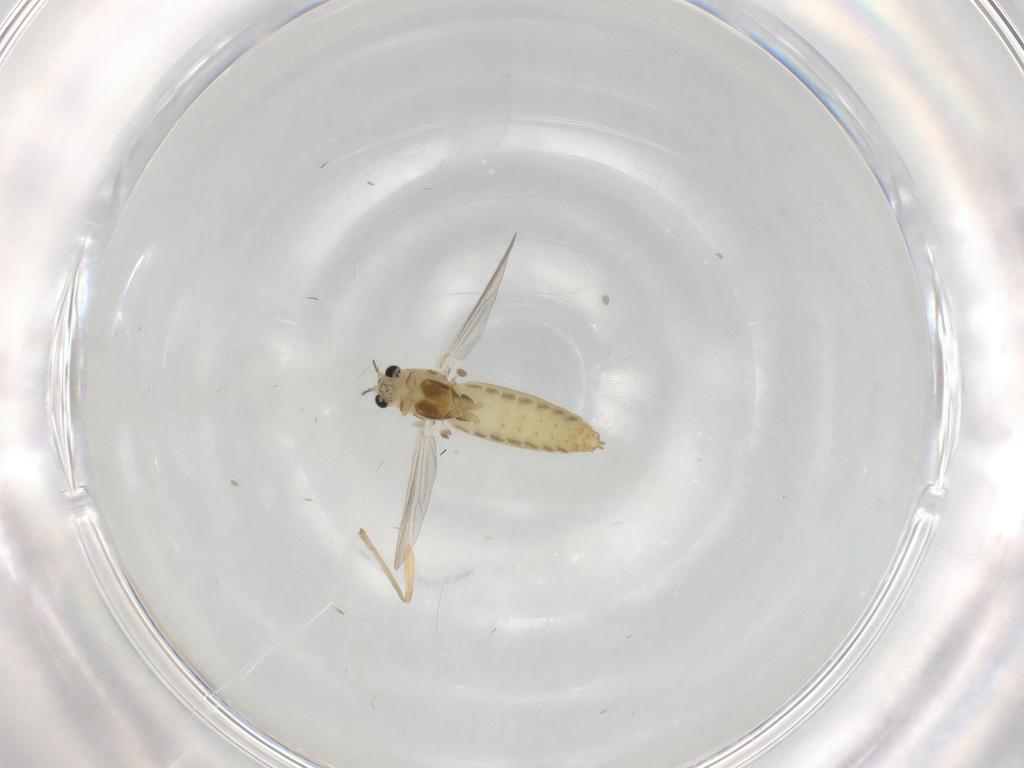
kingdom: Animalia
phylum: Arthropoda
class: Insecta
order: Diptera
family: Chironomidae
